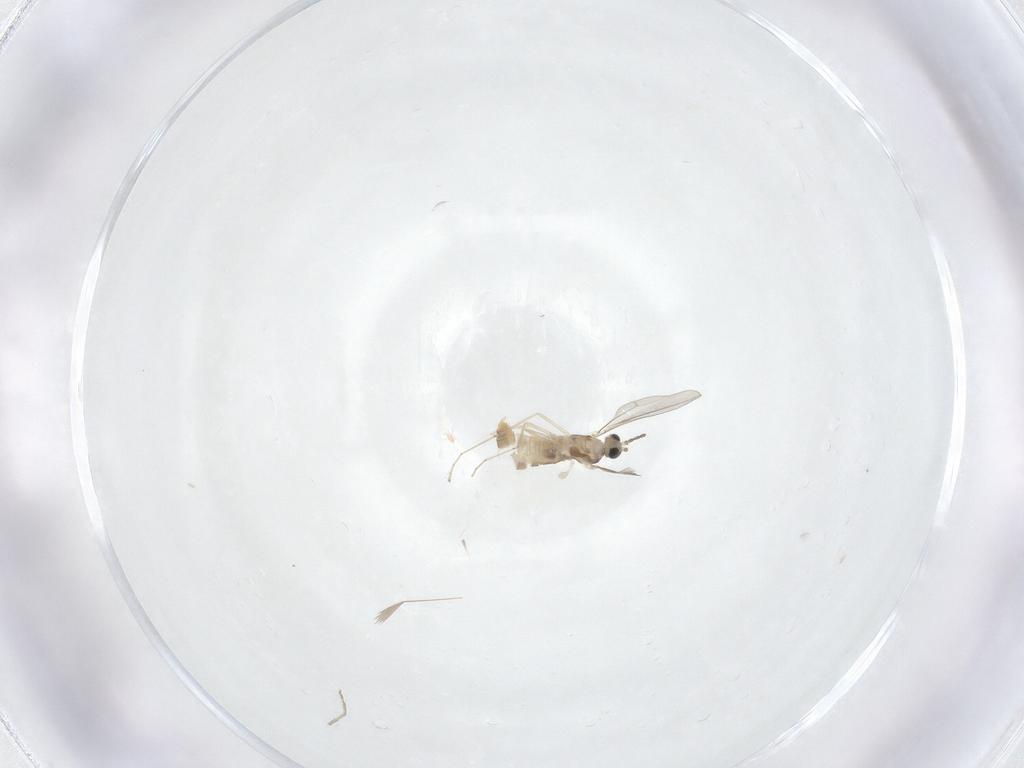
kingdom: Animalia
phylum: Arthropoda
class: Insecta
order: Diptera
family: Cecidomyiidae
